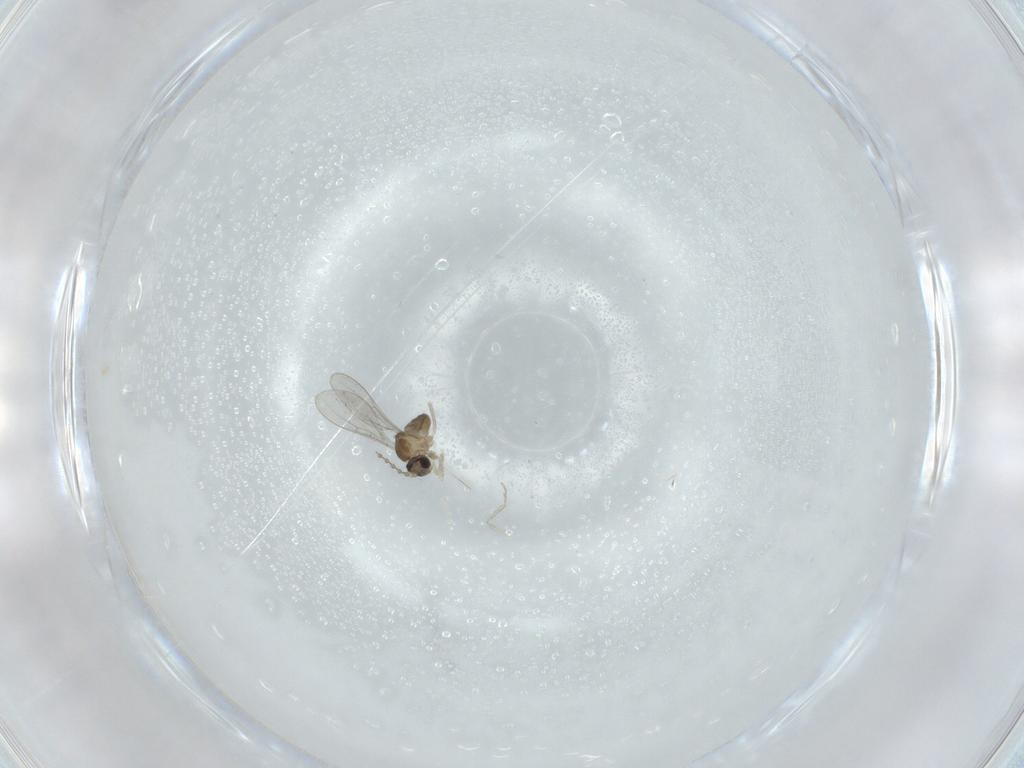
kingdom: Animalia
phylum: Arthropoda
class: Insecta
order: Diptera
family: Cecidomyiidae
